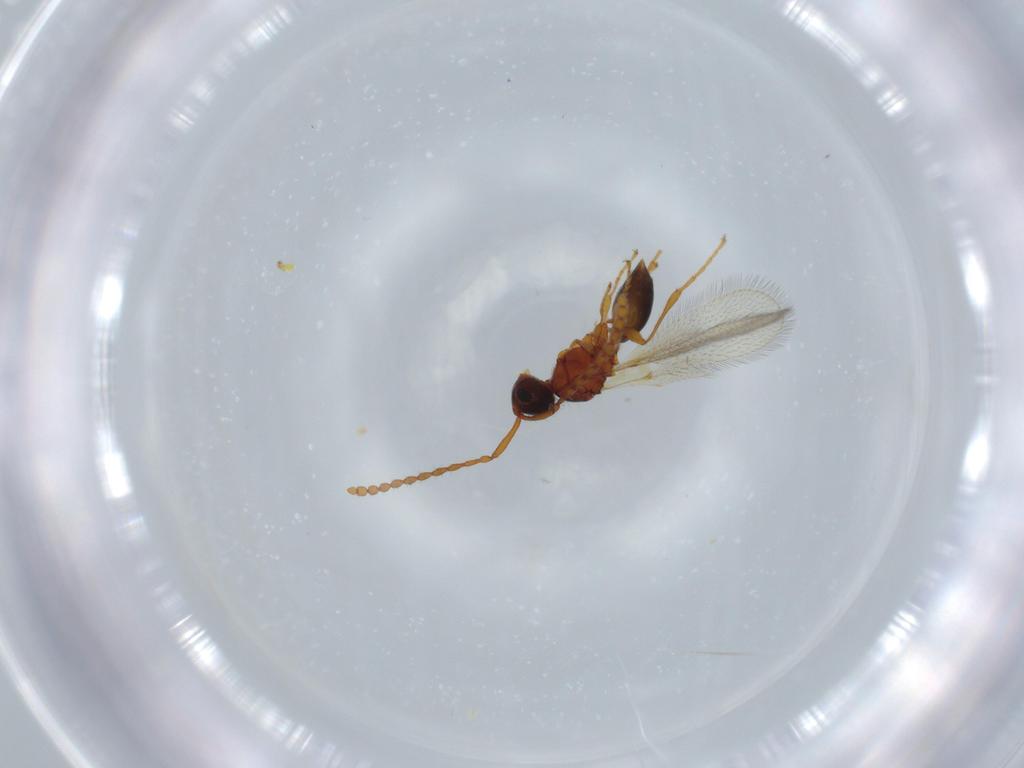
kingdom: Animalia
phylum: Arthropoda
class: Insecta
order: Hymenoptera
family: Diapriidae
